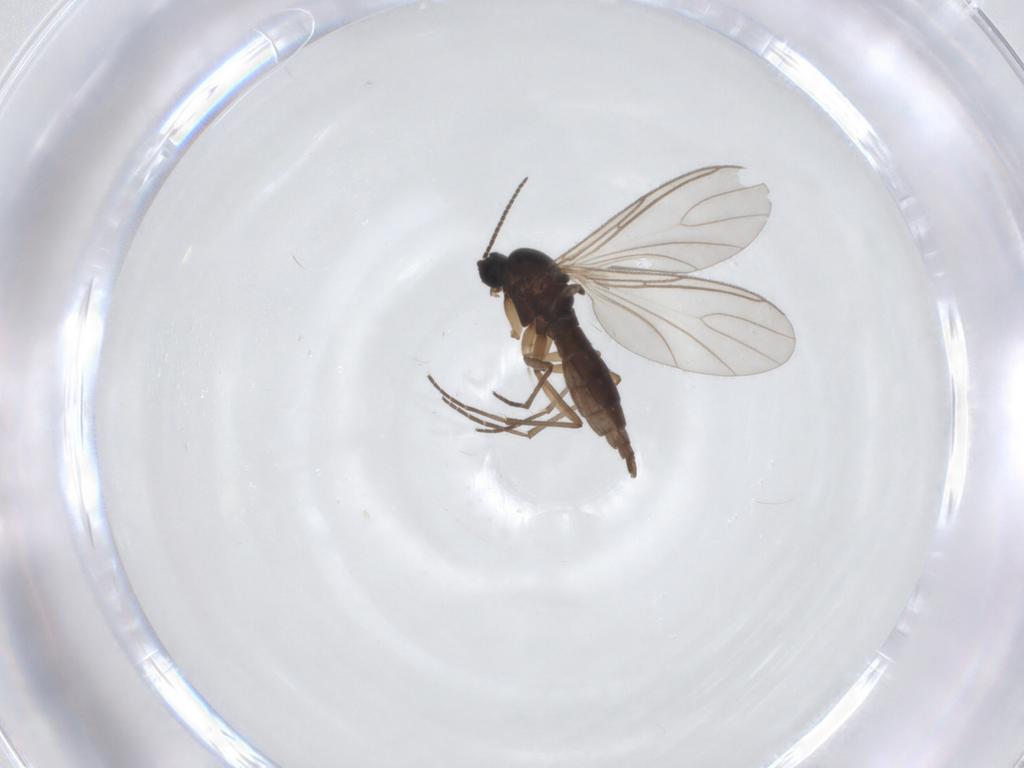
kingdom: Animalia
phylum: Arthropoda
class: Insecta
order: Diptera
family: Sciaridae
